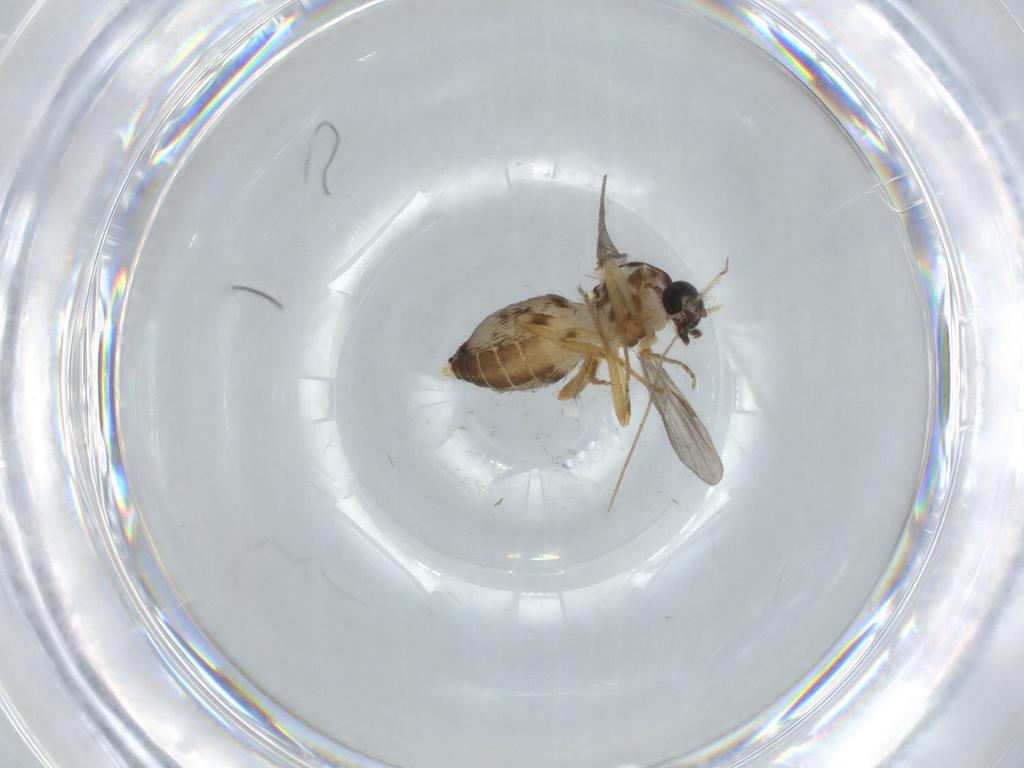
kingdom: Animalia
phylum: Arthropoda
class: Insecta
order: Diptera
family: Ceratopogonidae
